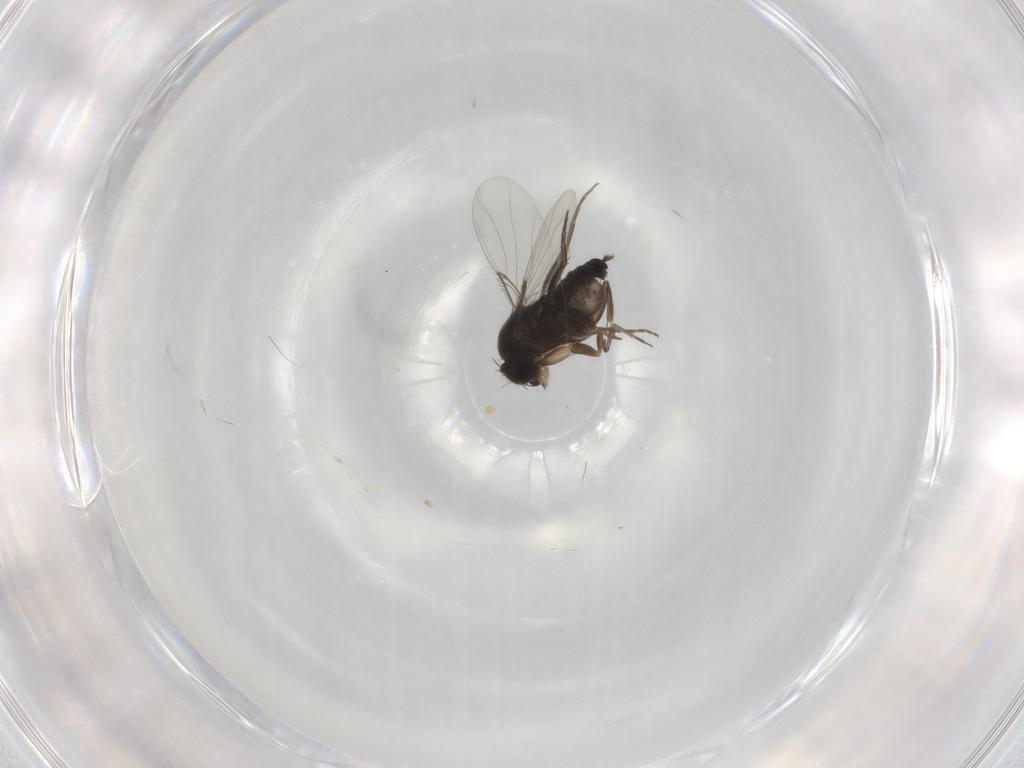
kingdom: Animalia
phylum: Arthropoda
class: Insecta
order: Diptera
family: Phoridae
